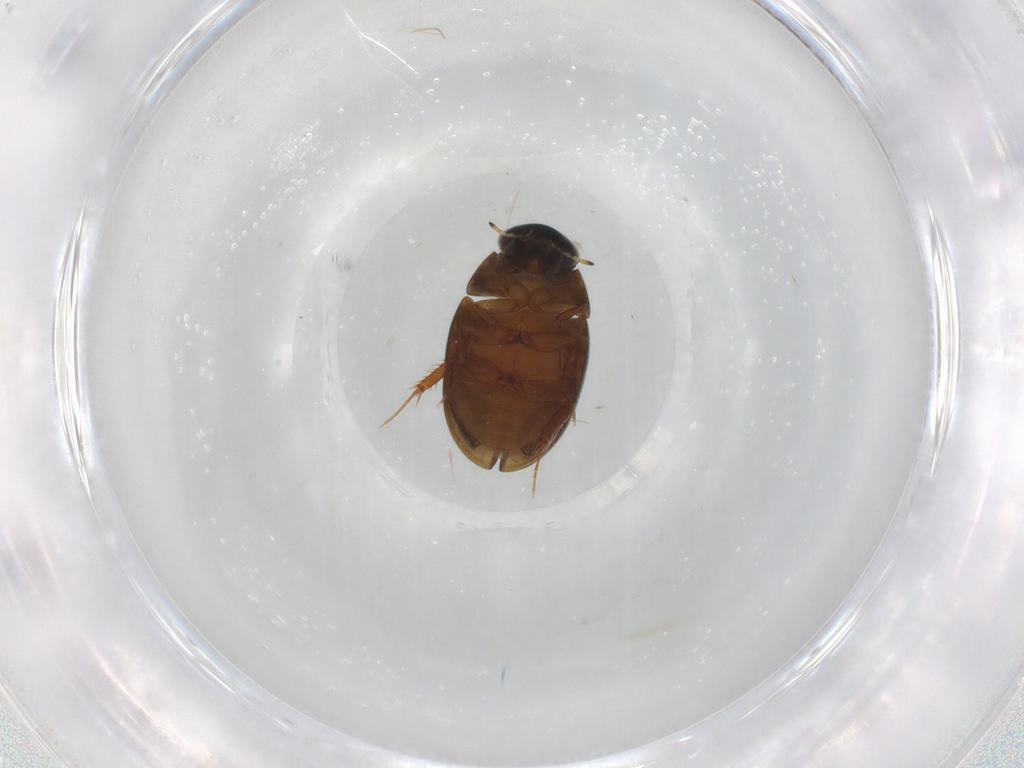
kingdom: Animalia
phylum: Arthropoda
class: Insecta
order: Coleoptera
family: Hydrophilidae
